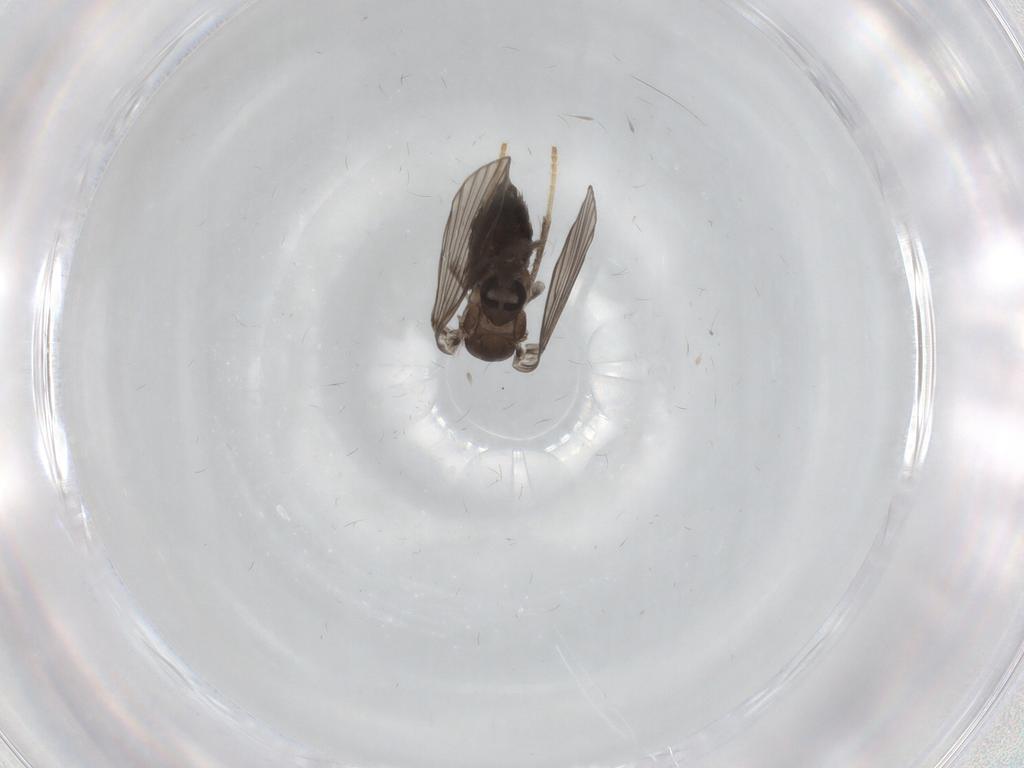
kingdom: Animalia
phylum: Arthropoda
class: Insecta
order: Diptera
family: Psychodidae
